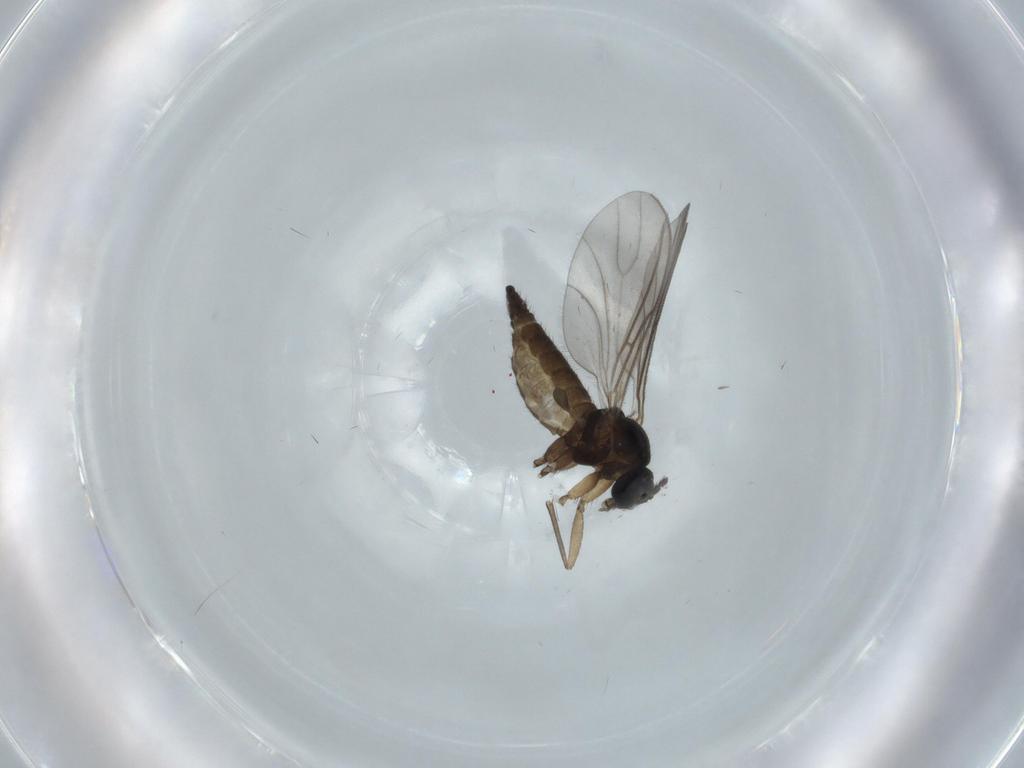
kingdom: Animalia
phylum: Arthropoda
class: Insecta
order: Diptera
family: Sciaridae
